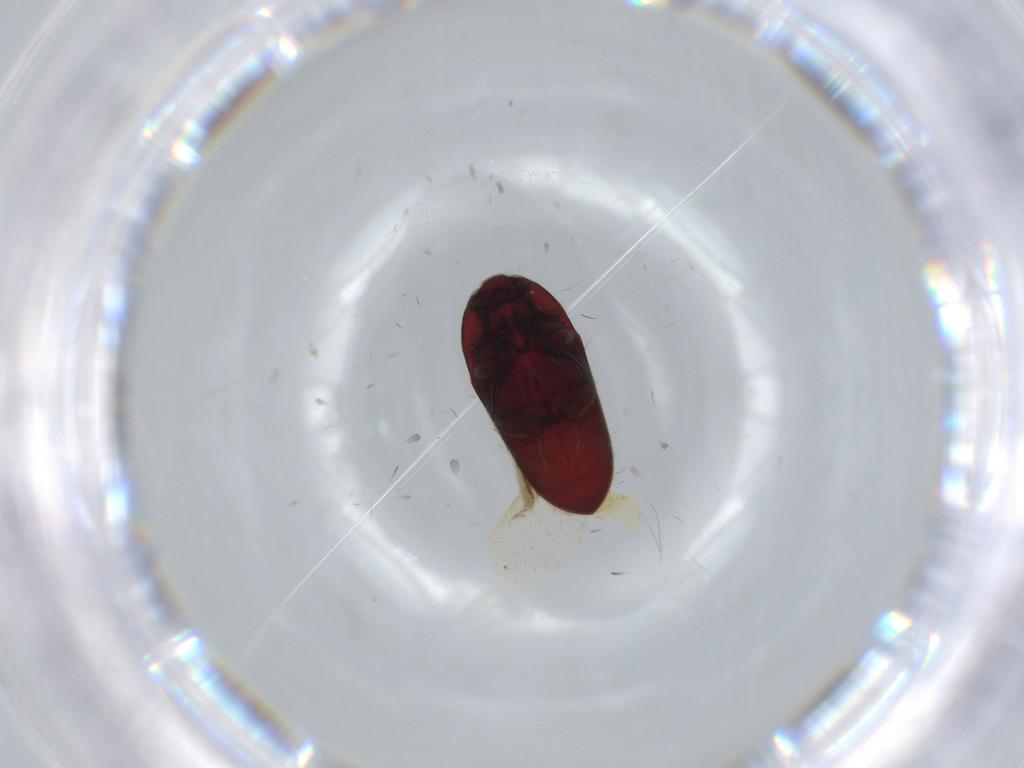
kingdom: Animalia
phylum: Arthropoda
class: Insecta
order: Coleoptera
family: Throscidae
